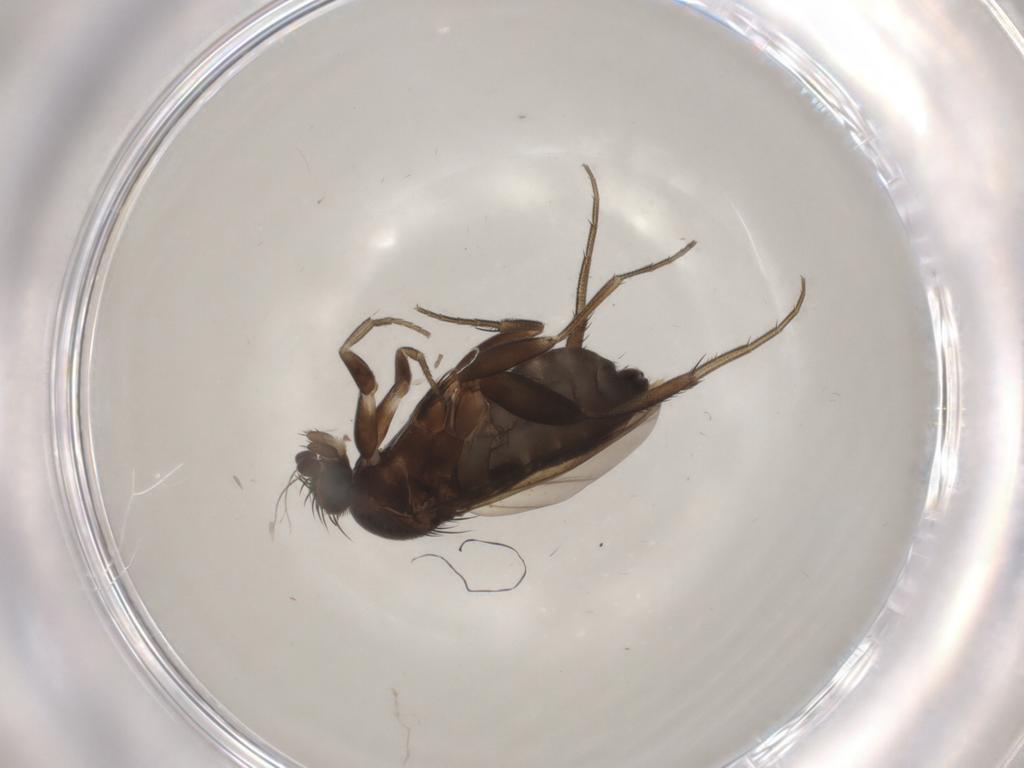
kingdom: Animalia
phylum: Arthropoda
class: Insecta
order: Diptera
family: Phoridae
